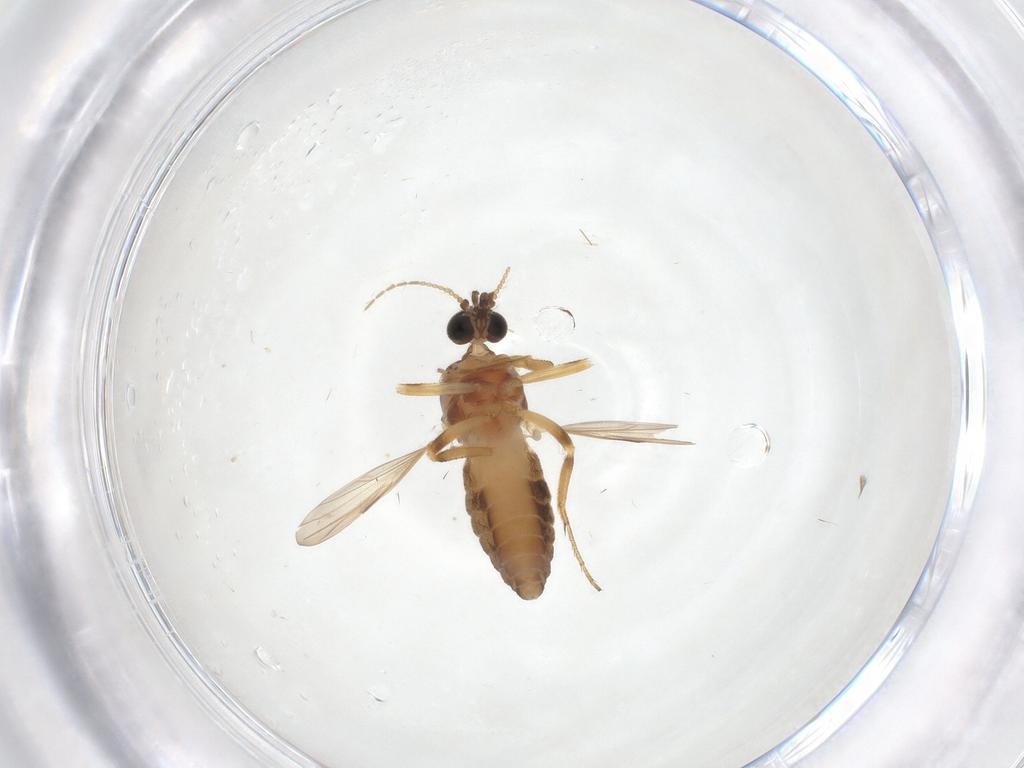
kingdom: Animalia
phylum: Arthropoda
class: Insecta
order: Diptera
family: Ceratopogonidae
